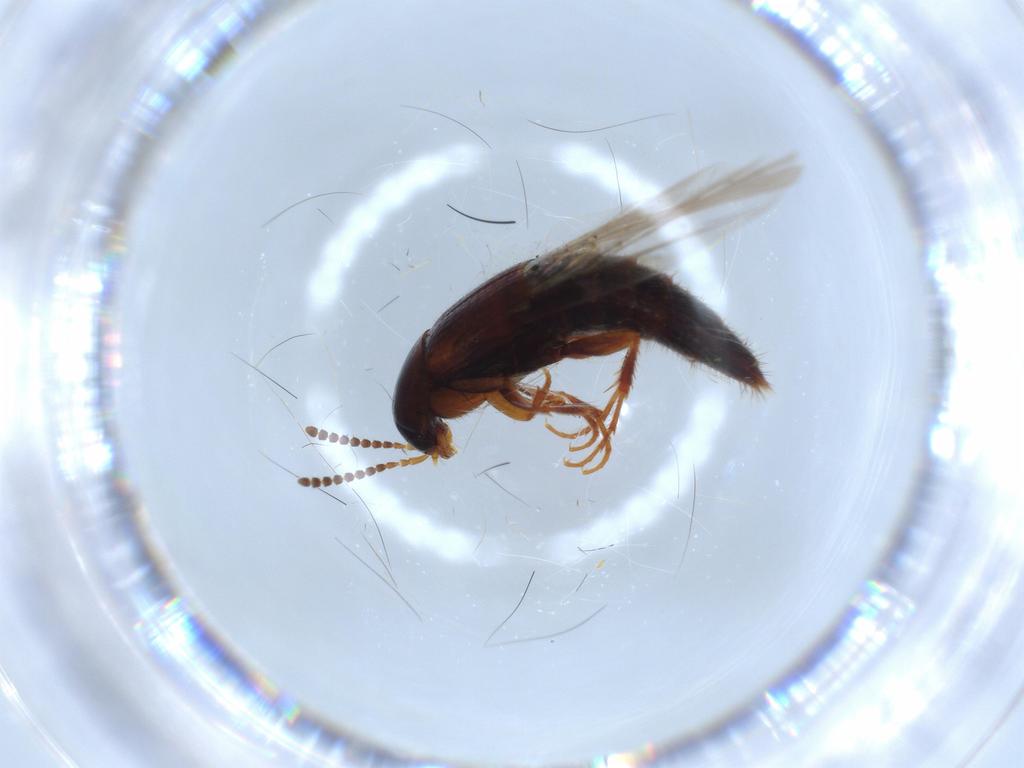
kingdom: Animalia
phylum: Arthropoda
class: Insecta
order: Coleoptera
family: Staphylinidae
